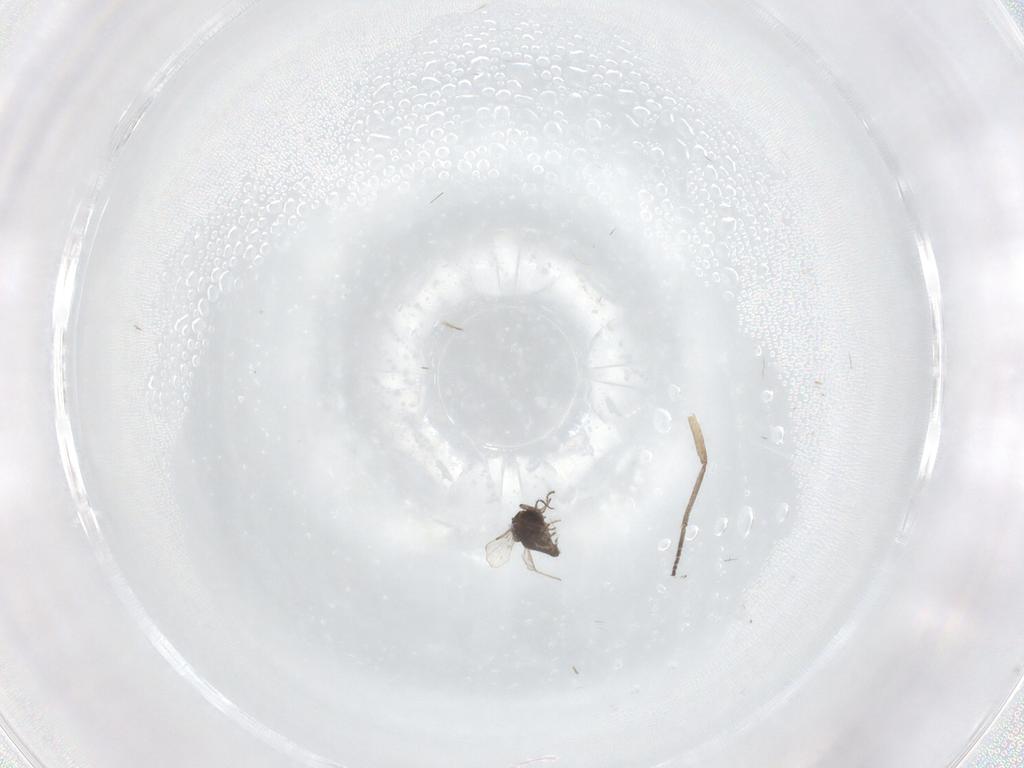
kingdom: Animalia
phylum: Arthropoda
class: Insecta
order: Diptera
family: Ceratopogonidae
